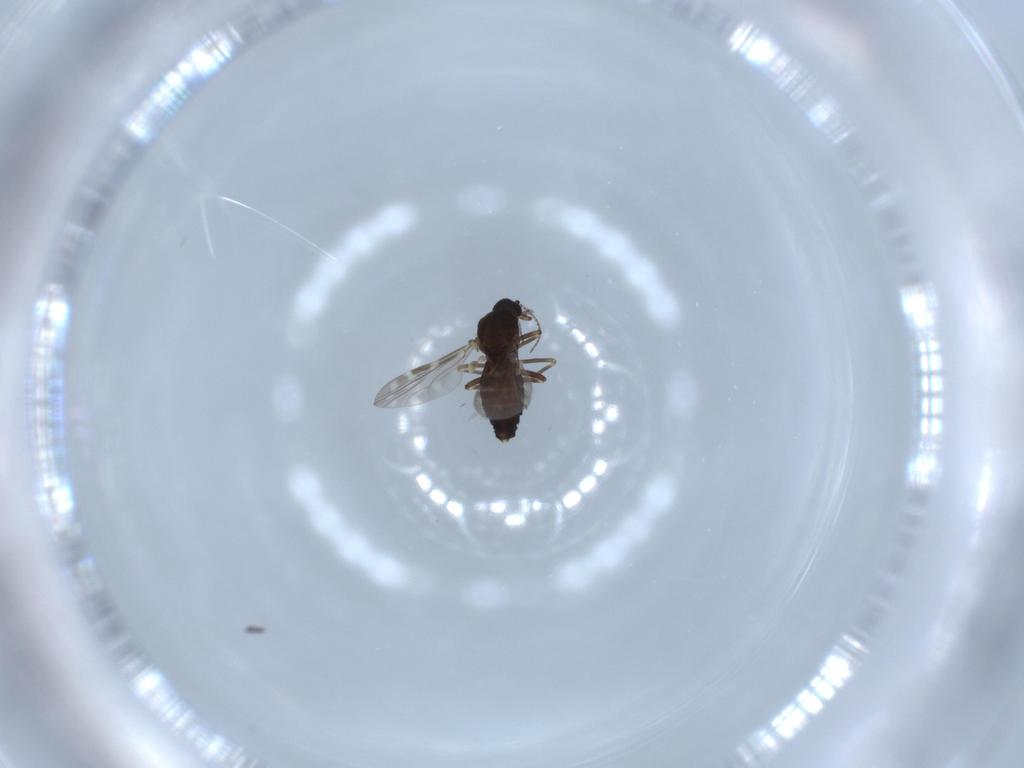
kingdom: Animalia
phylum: Arthropoda
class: Insecta
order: Diptera
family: Ceratopogonidae
